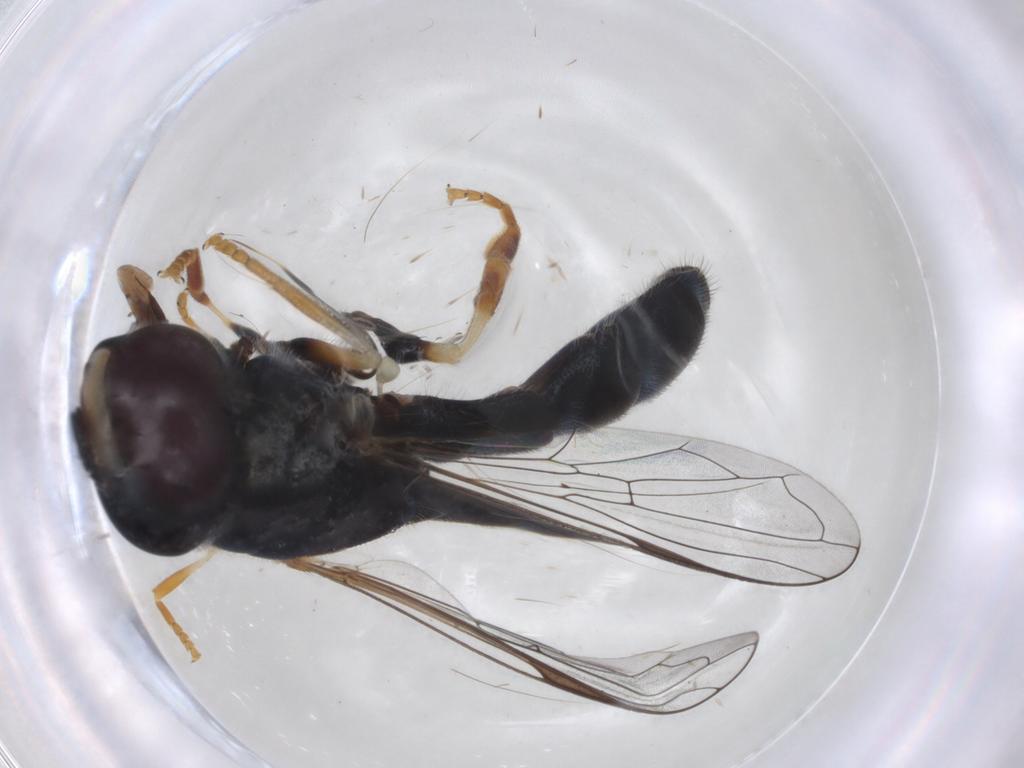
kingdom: Animalia
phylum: Arthropoda
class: Insecta
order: Diptera
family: Syrphidae
